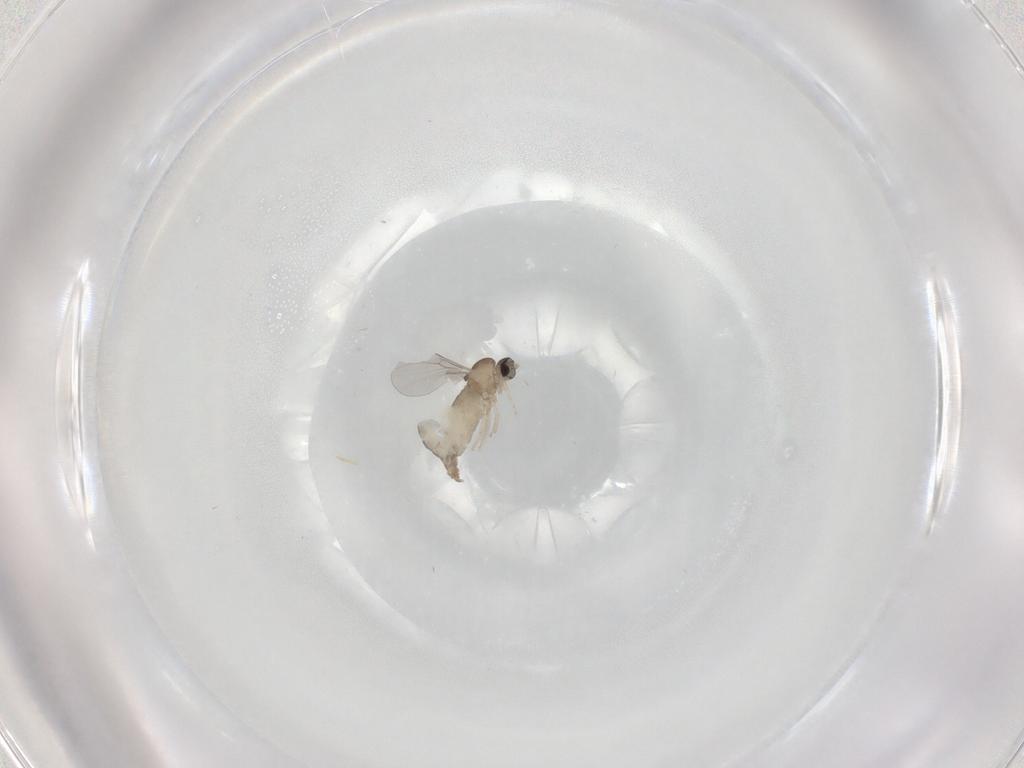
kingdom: Animalia
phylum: Arthropoda
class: Insecta
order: Diptera
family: Cecidomyiidae
